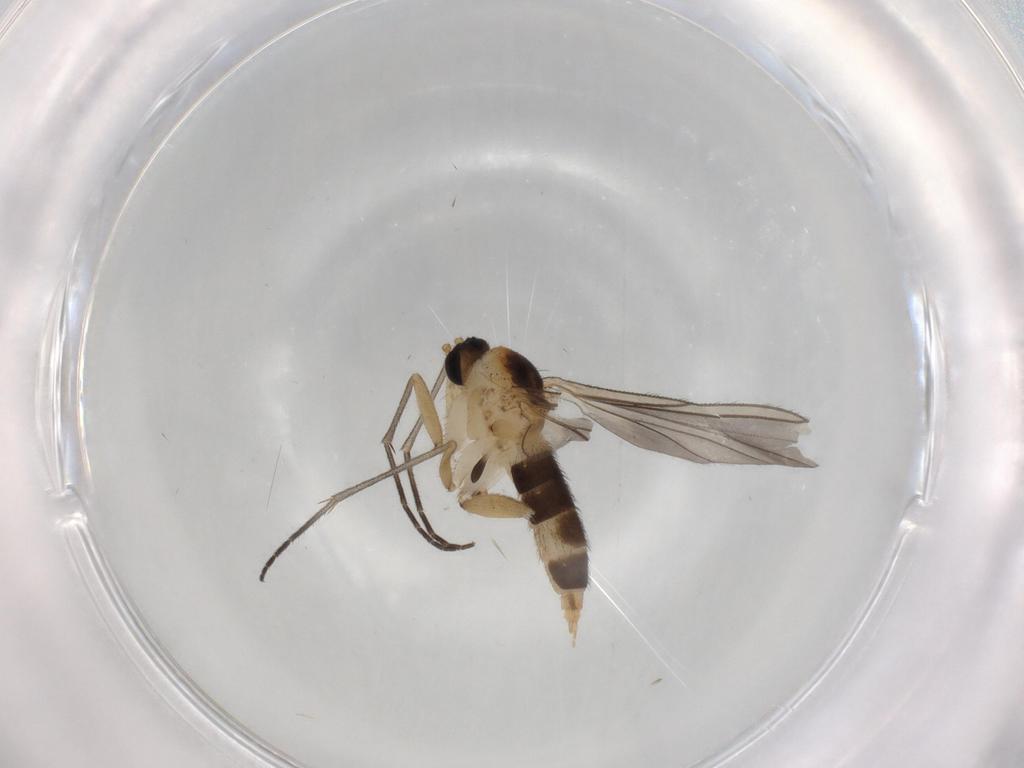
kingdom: Animalia
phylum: Arthropoda
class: Insecta
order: Diptera
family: Sciaridae
